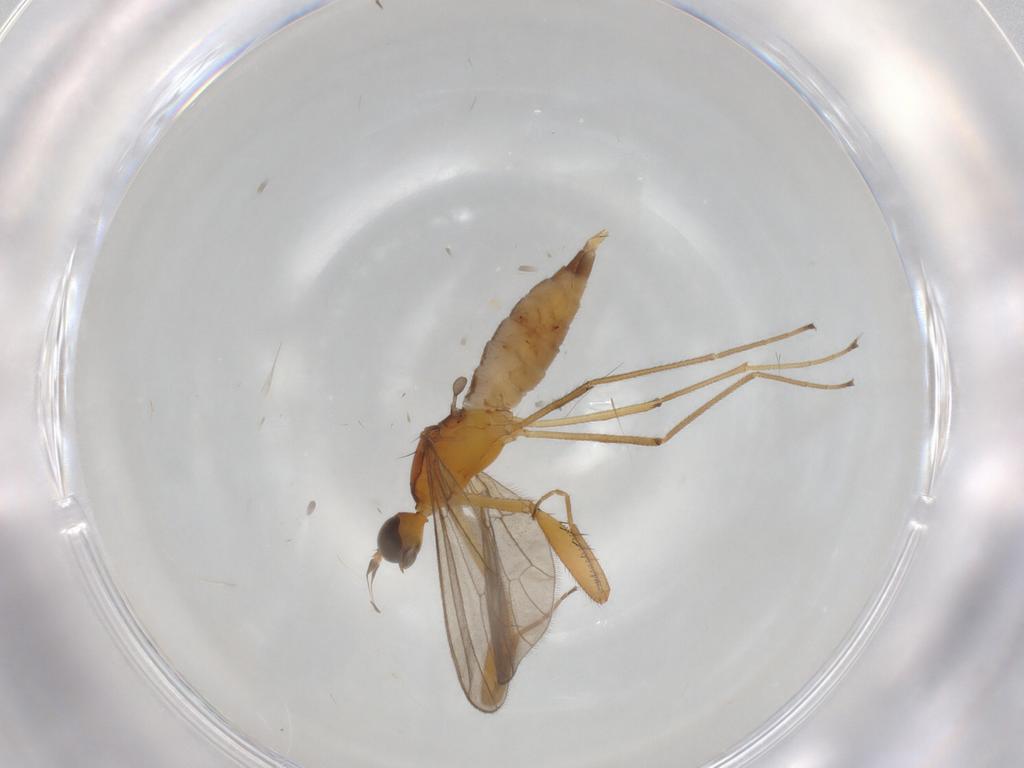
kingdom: Animalia
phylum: Arthropoda
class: Insecta
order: Diptera
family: Empididae
